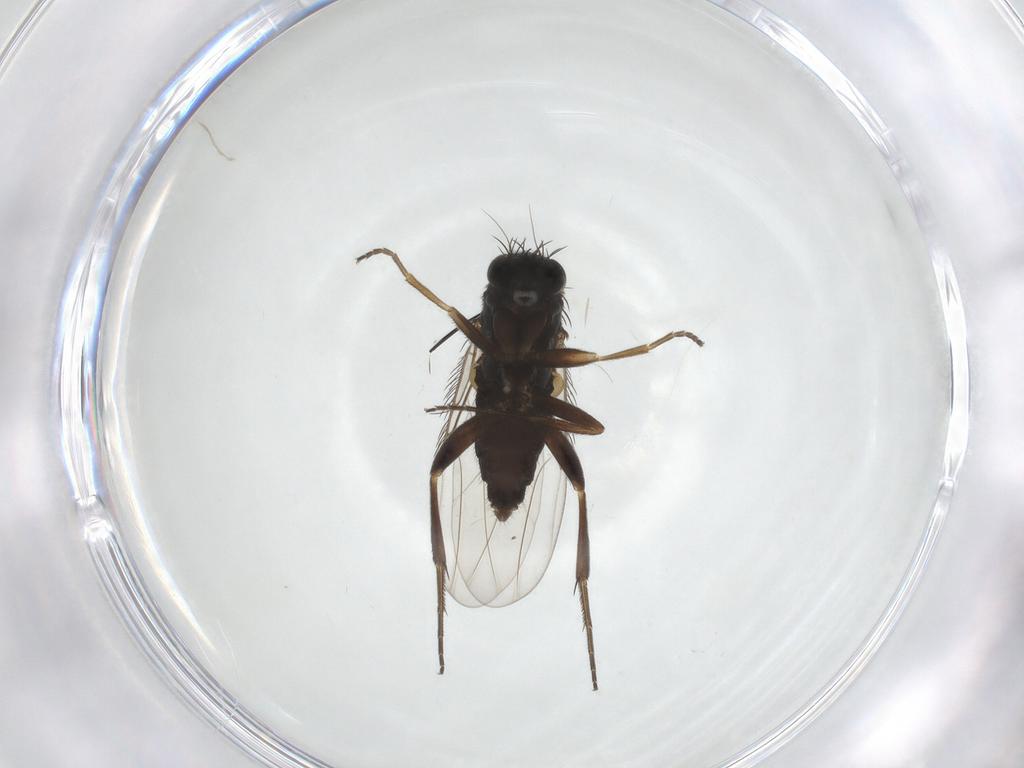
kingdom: Animalia
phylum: Arthropoda
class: Insecta
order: Diptera
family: Phoridae
